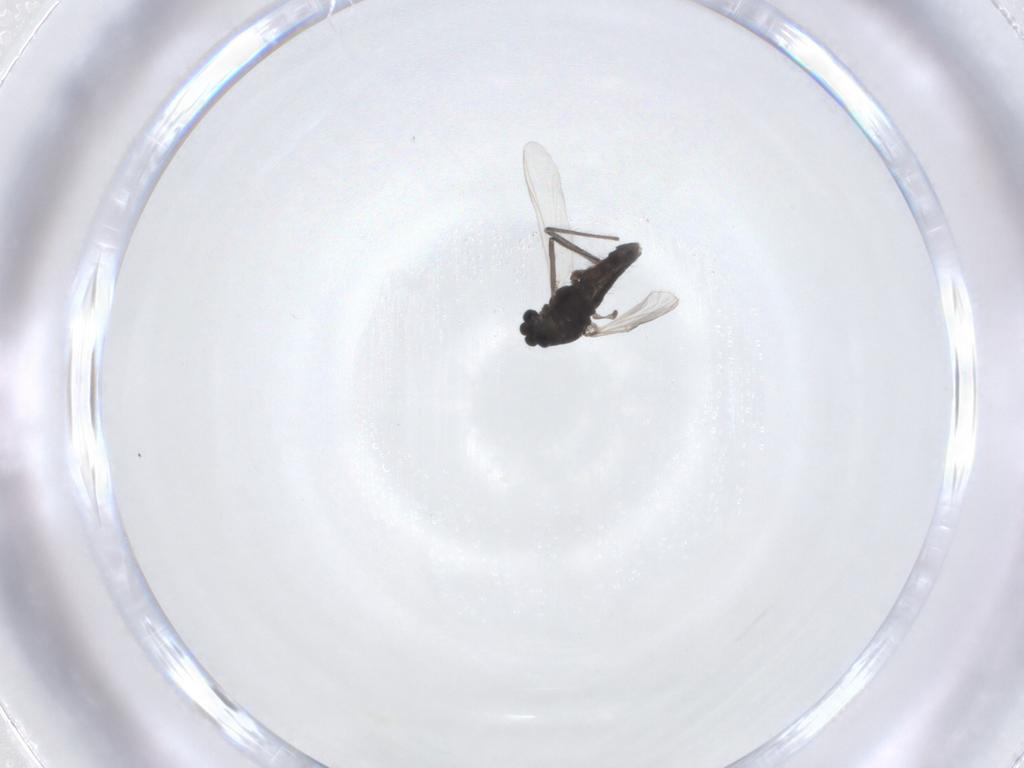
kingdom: Animalia
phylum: Arthropoda
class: Insecta
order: Diptera
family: Chironomidae
